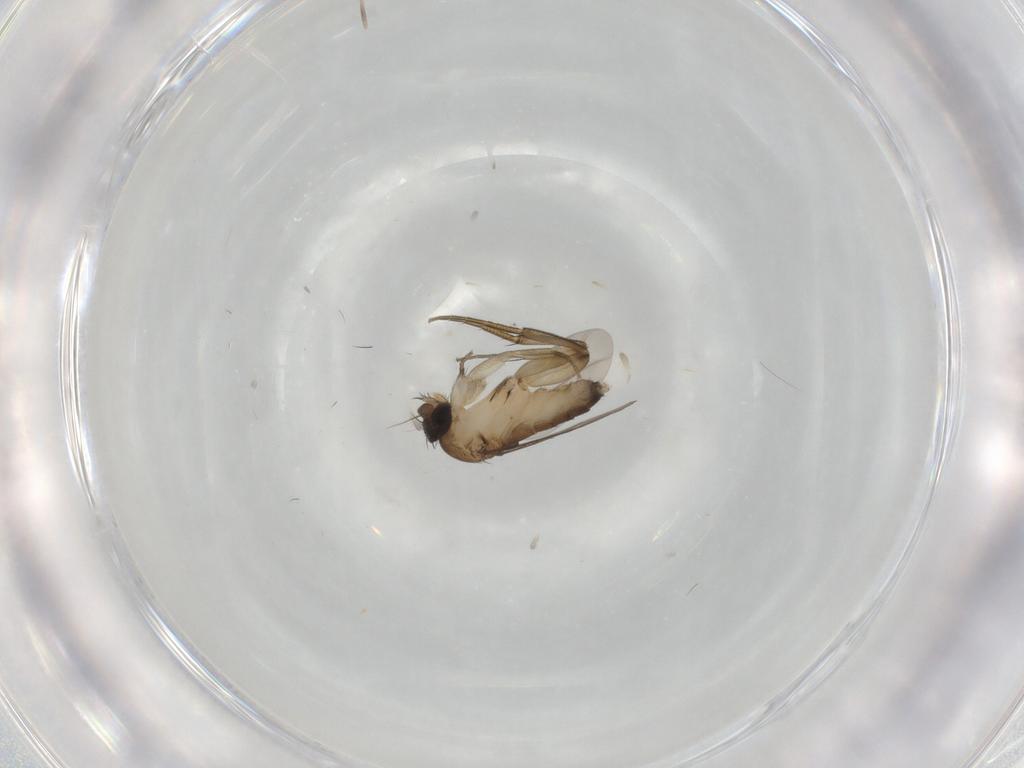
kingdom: Animalia
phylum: Arthropoda
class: Insecta
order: Diptera
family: Phoridae
